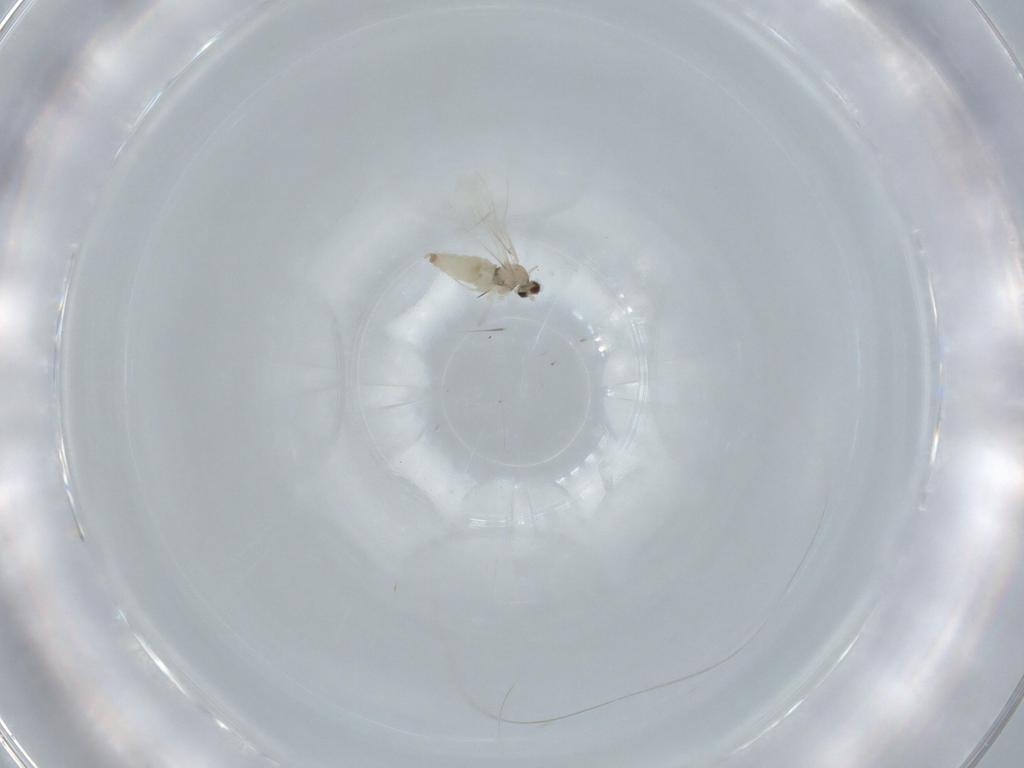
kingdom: Animalia
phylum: Arthropoda
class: Insecta
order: Diptera
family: Cecidomyiidae
